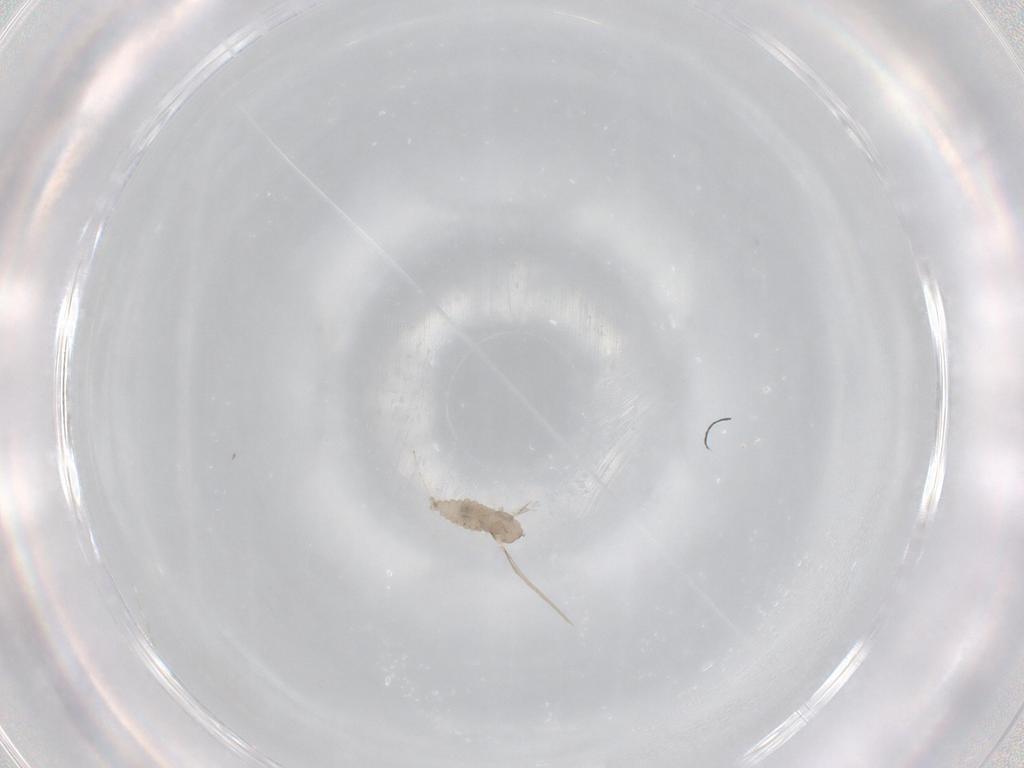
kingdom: Animalia
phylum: Arthropoda
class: Insecta
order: Diptera
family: Cecidomyiidae
